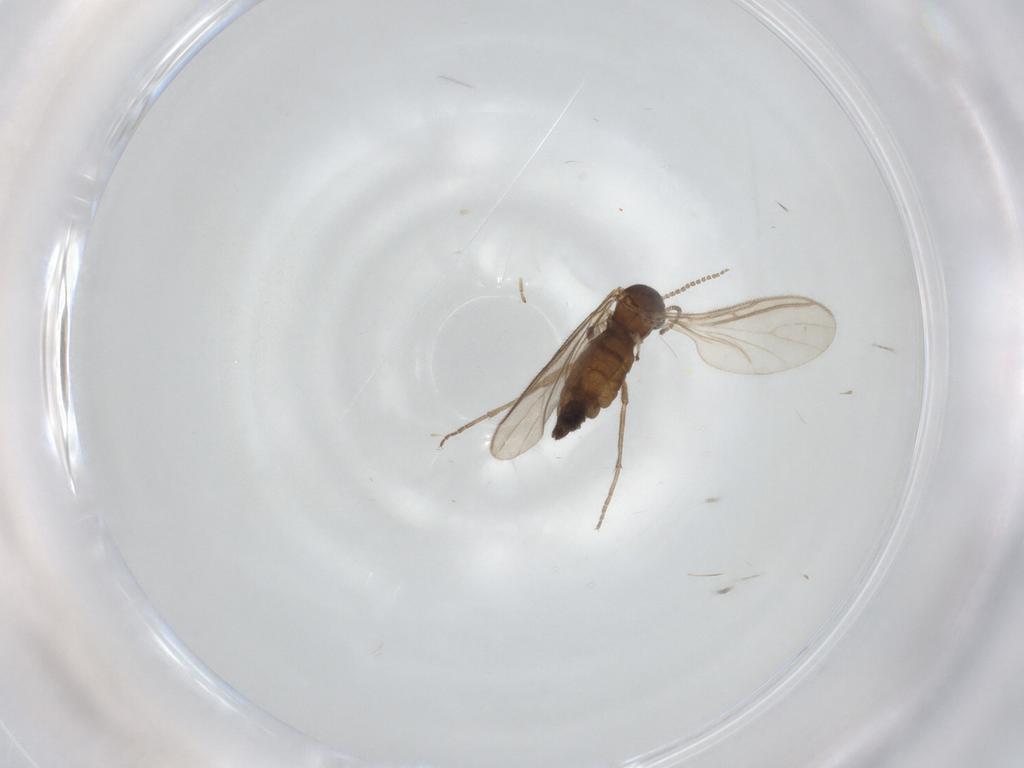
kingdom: Animalia
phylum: Arthropoda
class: Insecta
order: Diptera
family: Sciaridae
